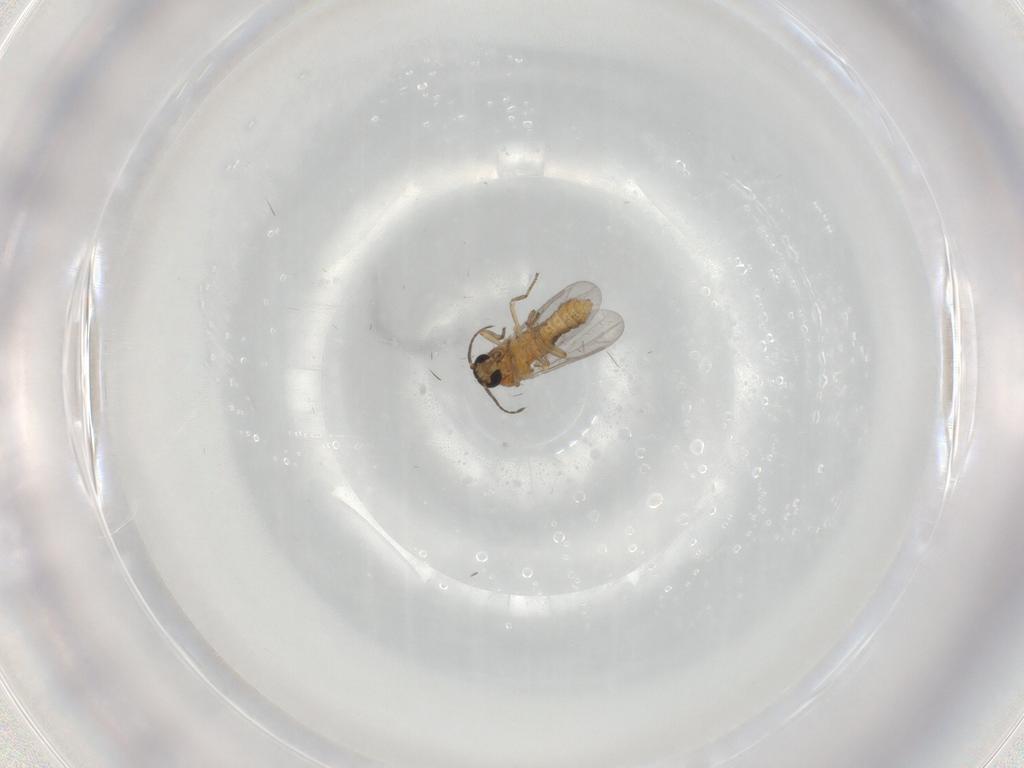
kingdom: Animalia
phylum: Arthropoda
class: Insecta
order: Diptera
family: Ceratopogonidae
